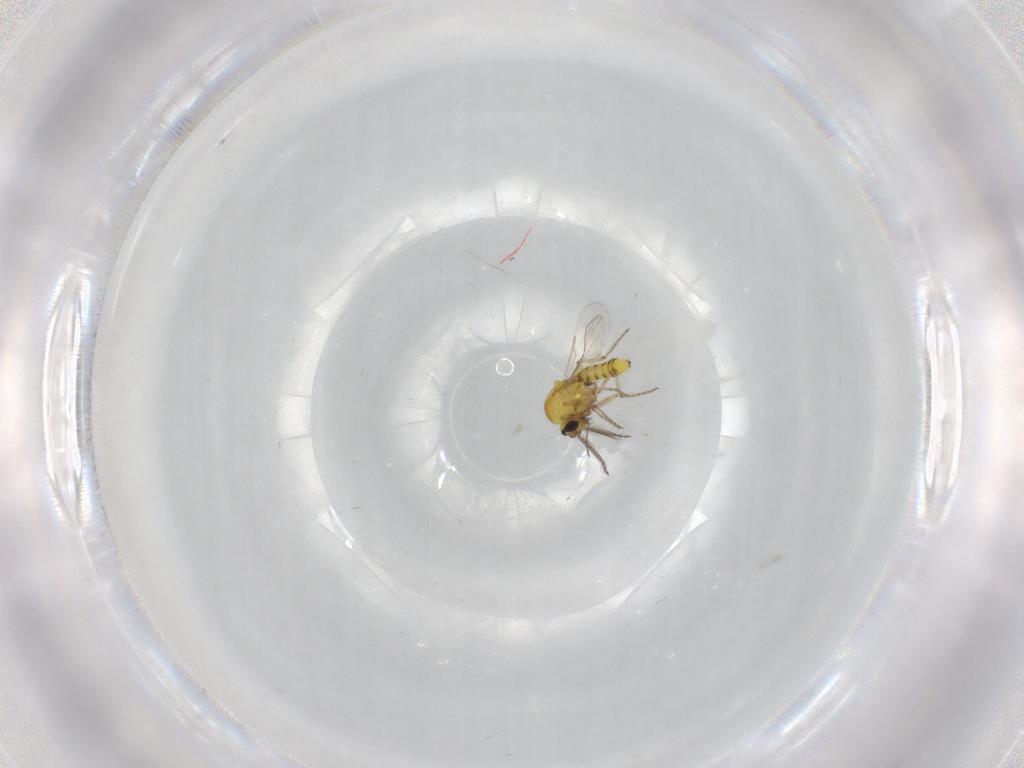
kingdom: Animalia
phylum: Arthropoda
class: Insecta
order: Diptera
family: Ceratopogonidae
